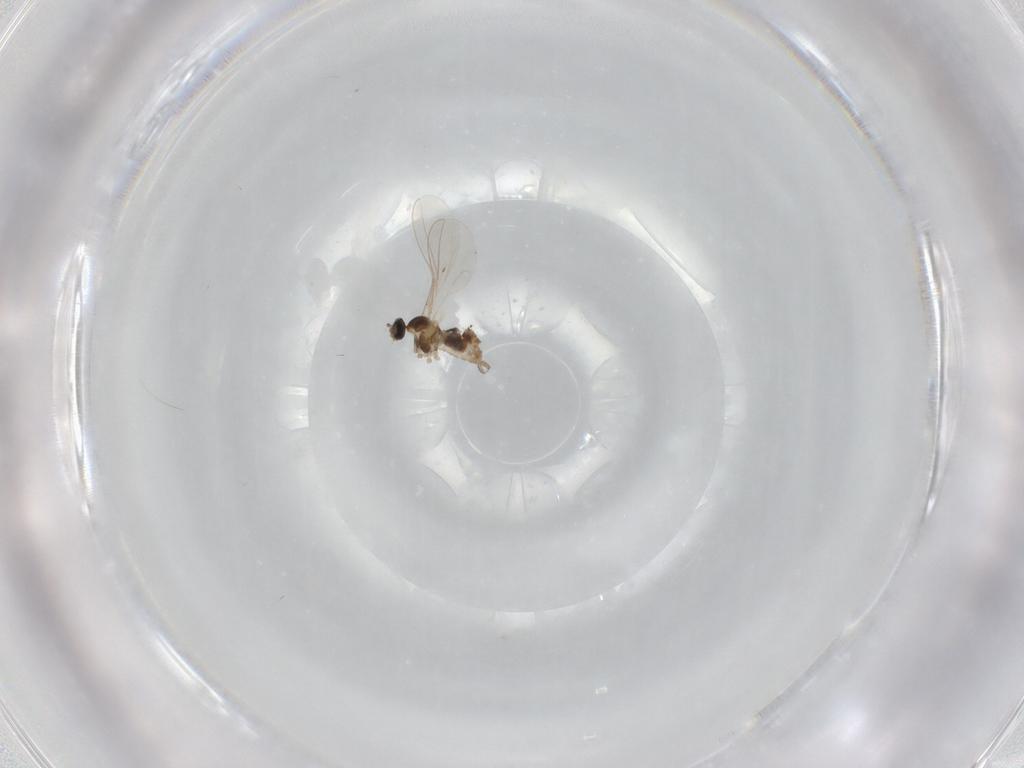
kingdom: Animalia
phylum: Arthropoda
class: Insecta
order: Diptera
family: Cecidomyiidae
